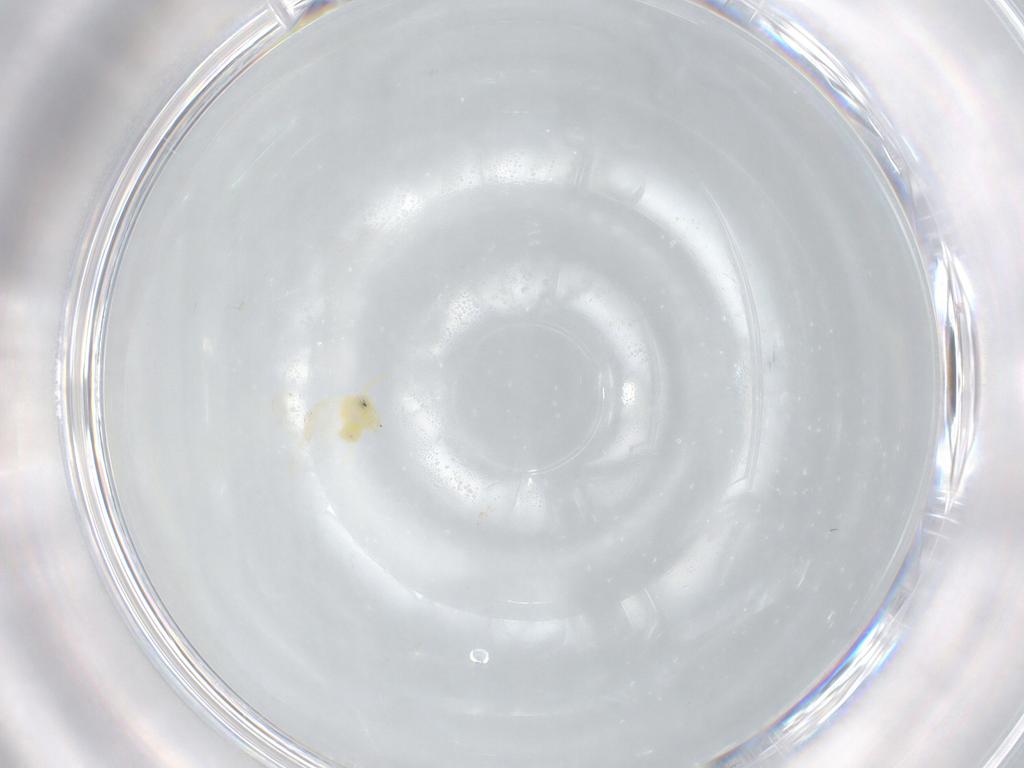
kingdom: Animalia
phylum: Arthropoda
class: Insecta
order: Hemiptera
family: Aleyrodidae
